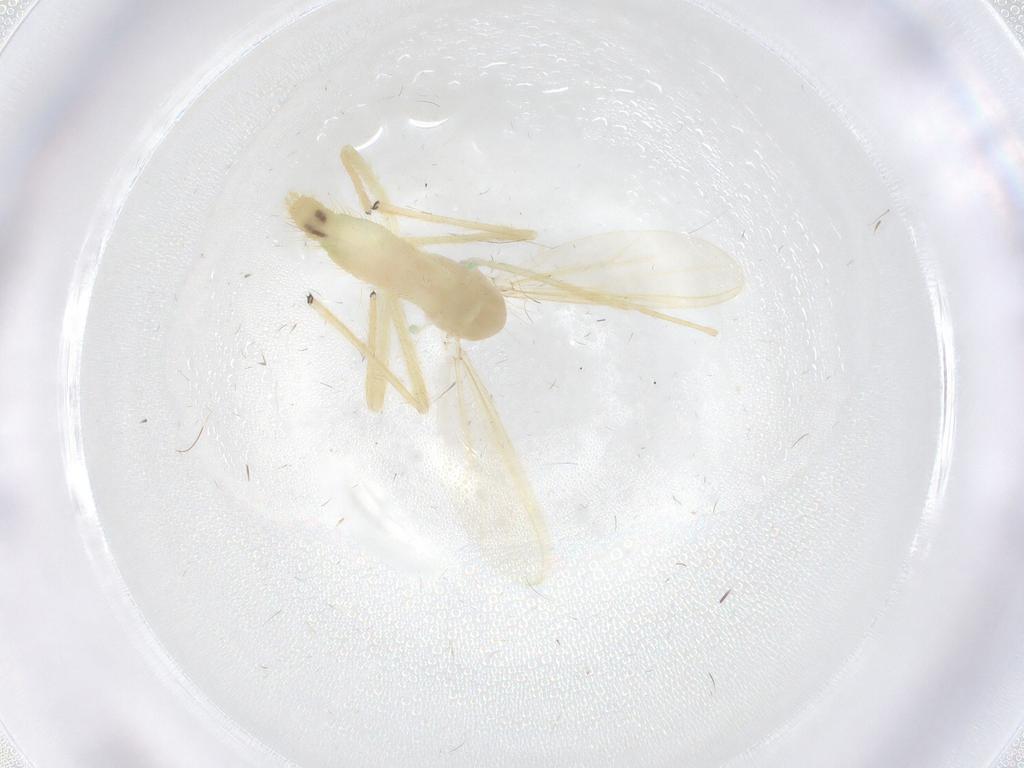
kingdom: Animalia
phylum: Arthropoda
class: Insecta
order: Diptera
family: Chironomidae
